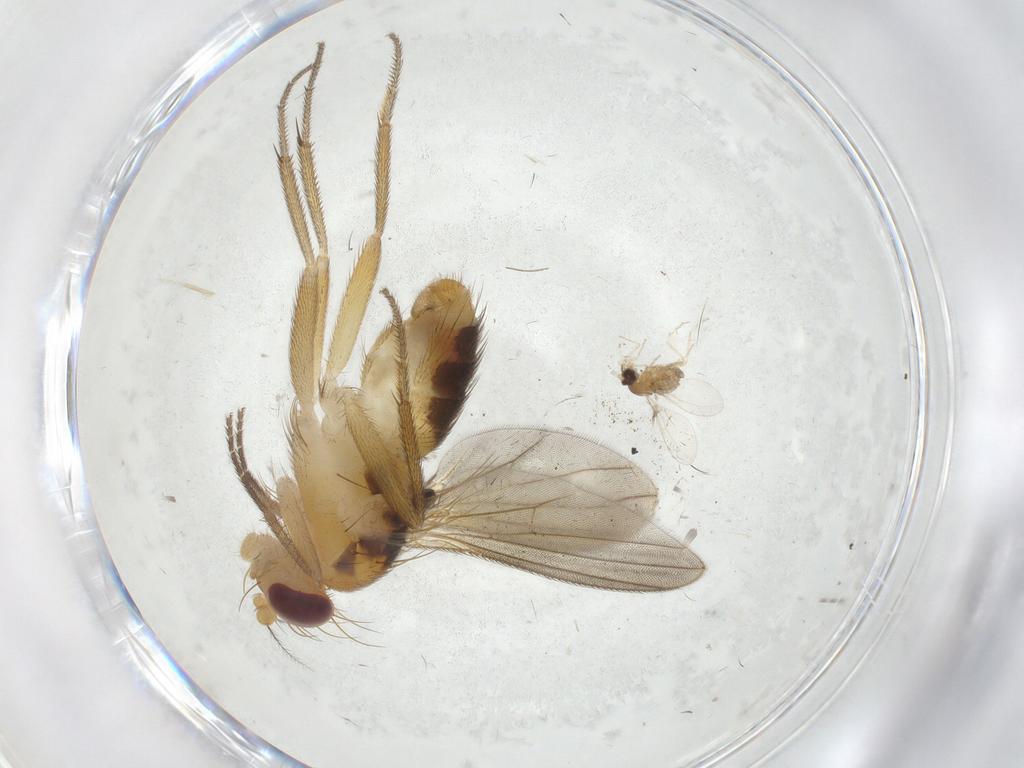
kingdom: Animalia
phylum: Arthropoda
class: Insecta
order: Diptera
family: Clusiidae
